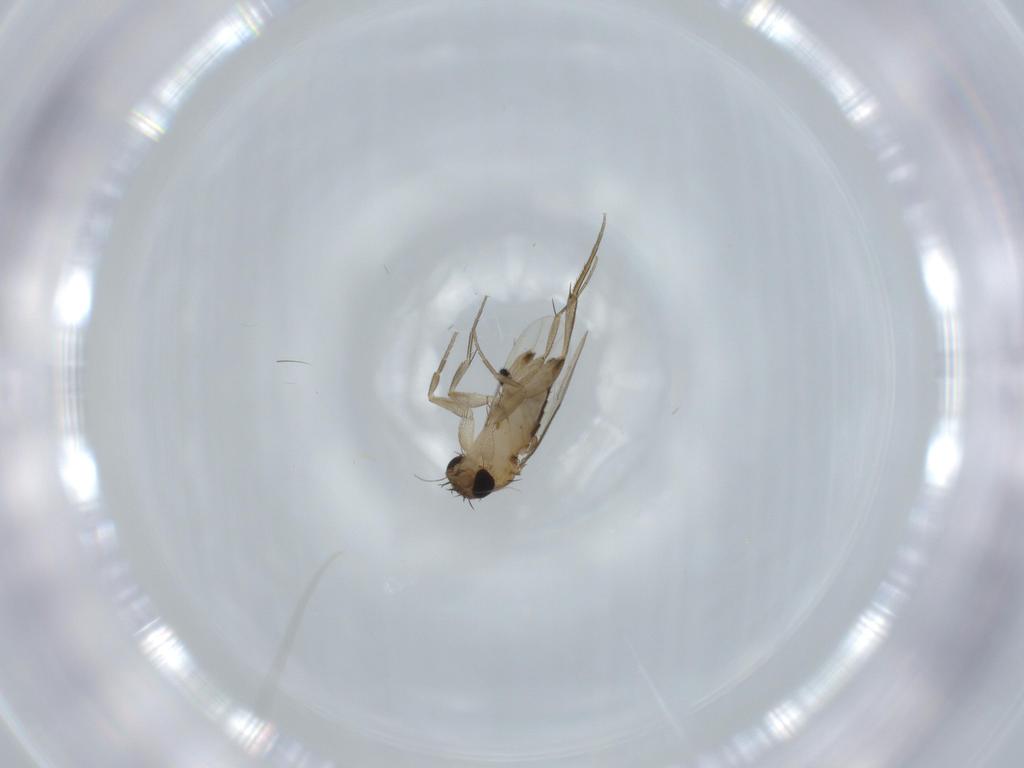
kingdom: Animalia
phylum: Arthropoda
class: Insecta
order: Diptera
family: Phoridae
